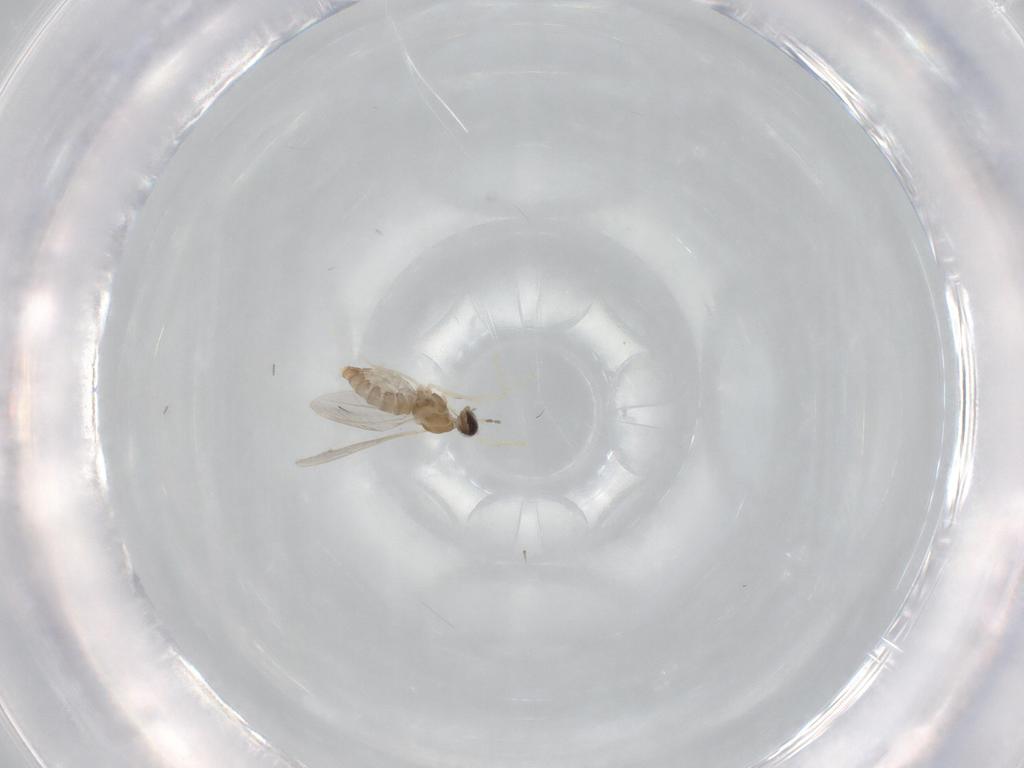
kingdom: Animalia
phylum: Arthropoda
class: Insecta
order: Diptera
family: Cecidomyiidae
